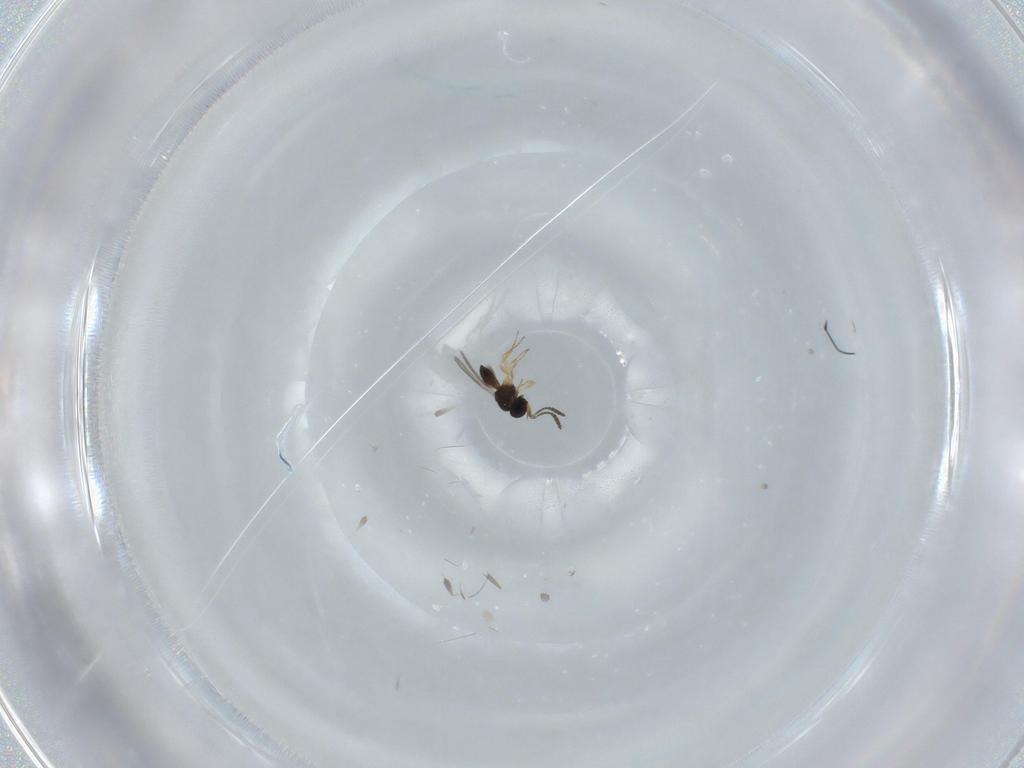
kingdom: Animalia
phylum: Arthropoda
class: Insecta
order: Hymenoptera
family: Scelionidae
